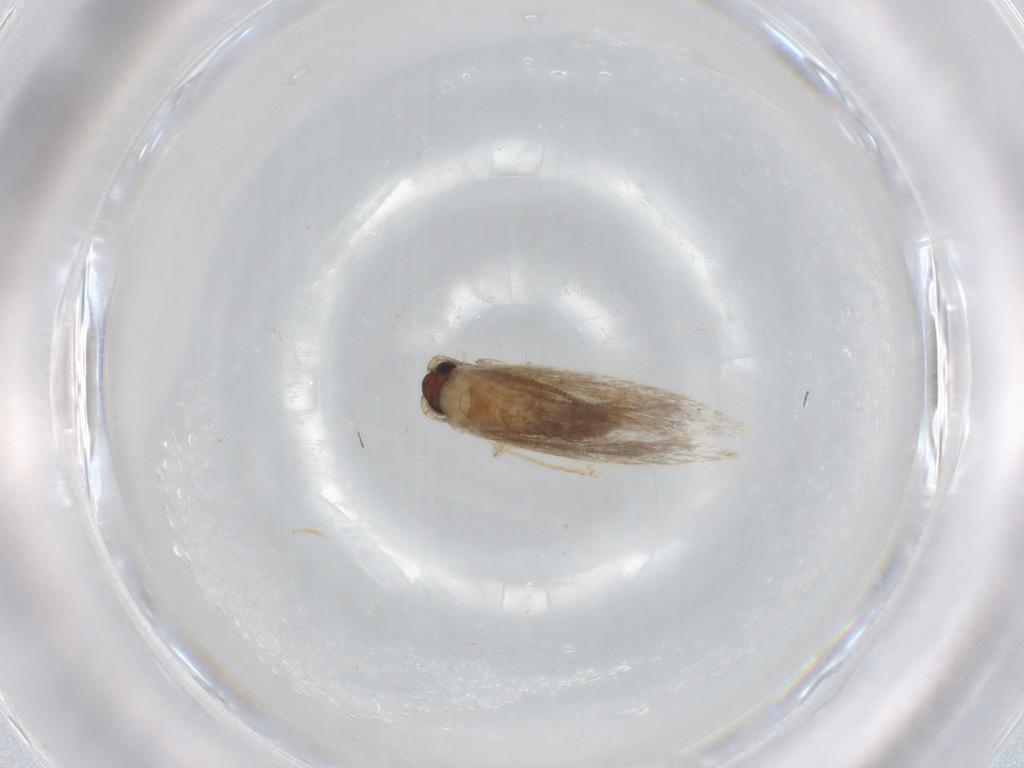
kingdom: Animalia
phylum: Arthropoda
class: Insecta
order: Lepidoptera
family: Tineidae
